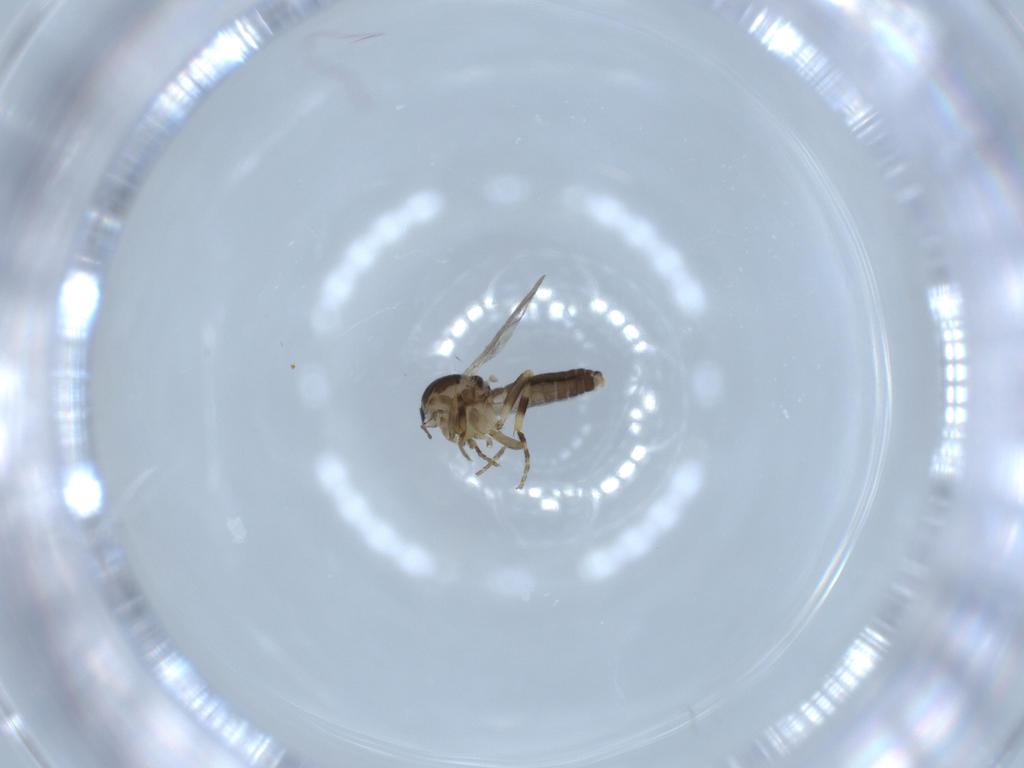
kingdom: Animalia
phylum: Arthropoda
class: Insecta
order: Diptera
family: Ceratopogonidae
